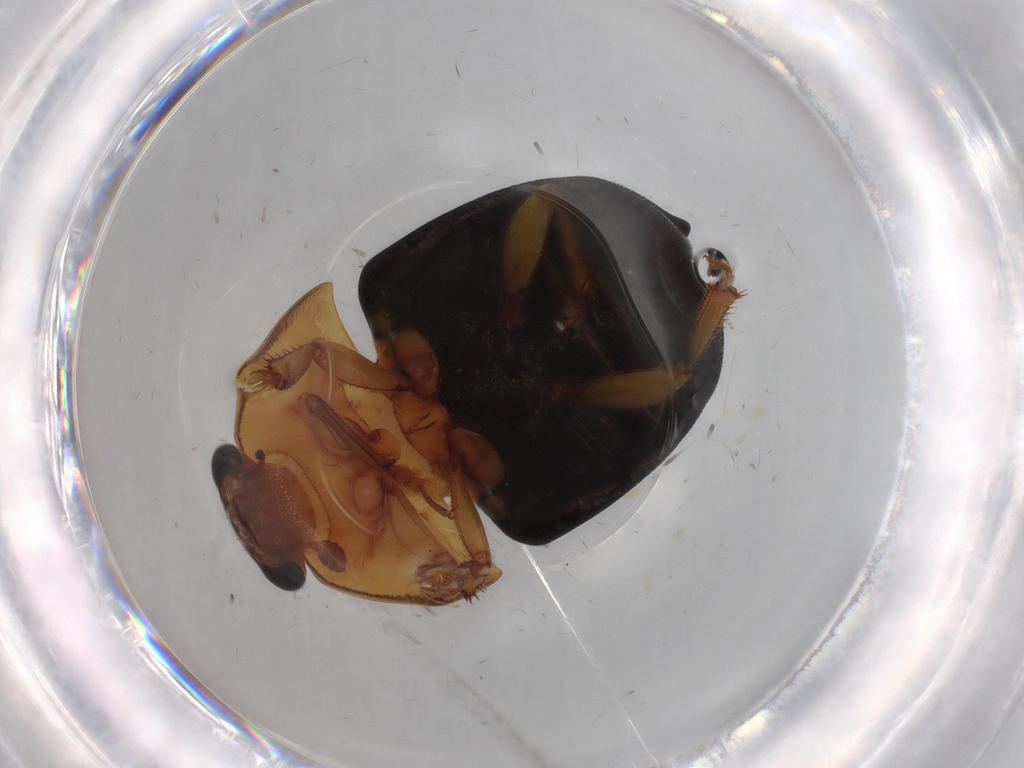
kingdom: Animalia
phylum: Arthropoda
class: Insecta
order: Coleoptera
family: Nitidulidae
